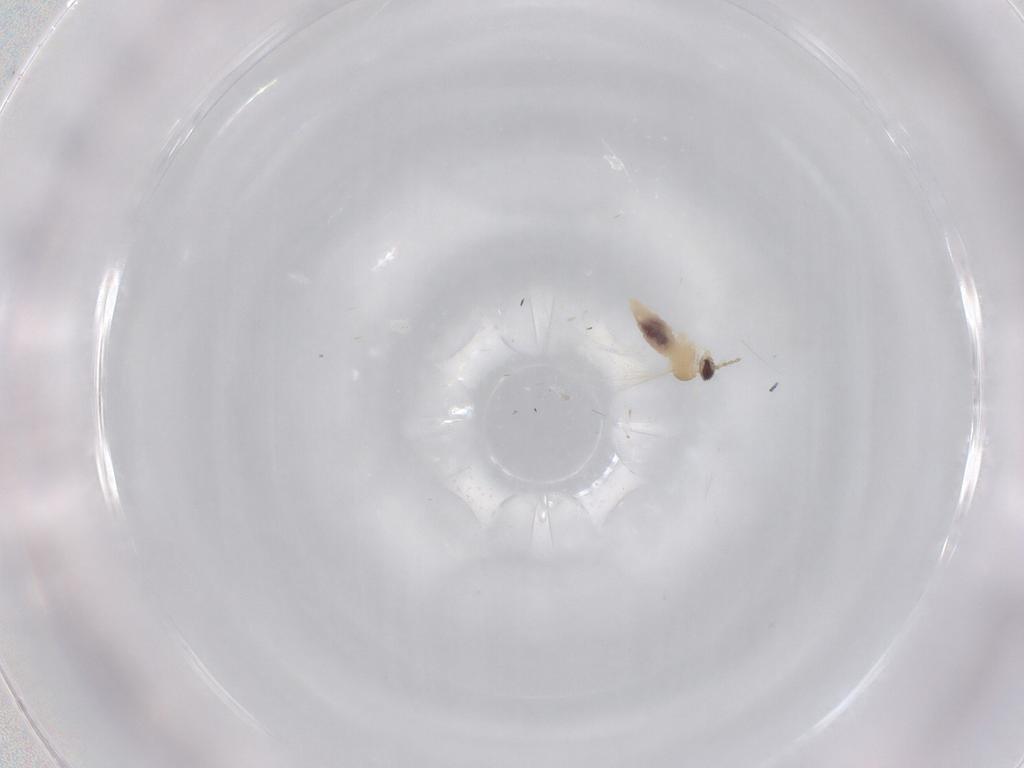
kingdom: Animalia
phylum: Arthropoda
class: Insecta
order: Diptera
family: Cecidomyiidae
